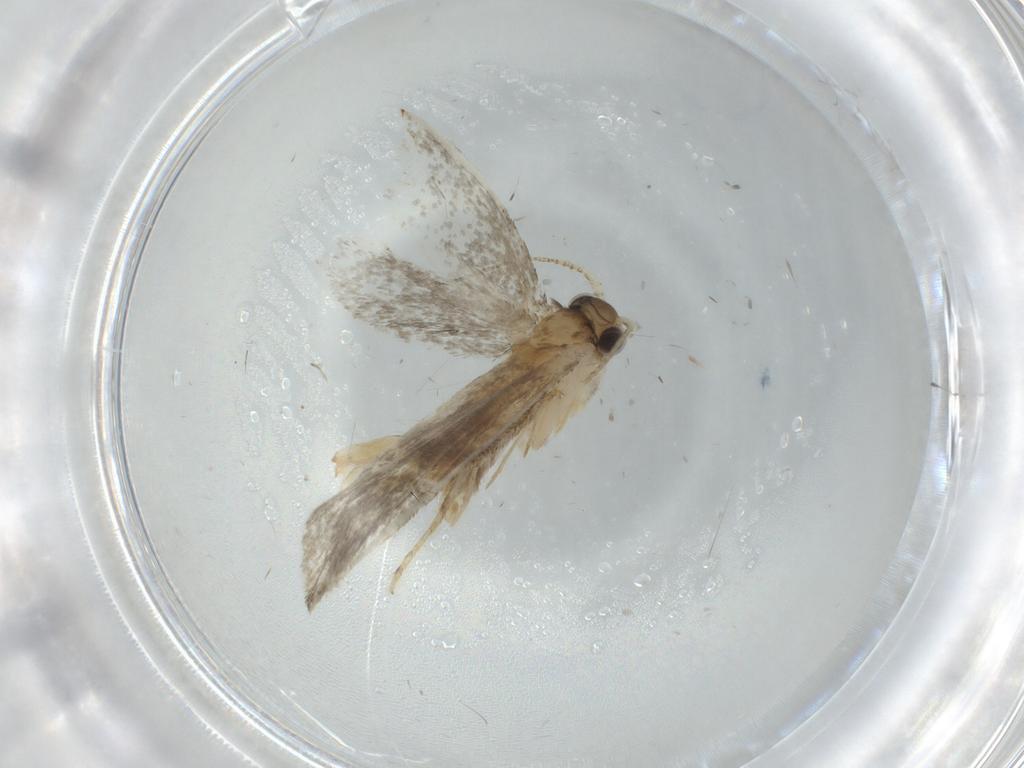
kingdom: Animalia
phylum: Arthropoda
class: Insecta
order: Lepidoptera
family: Tineidae
